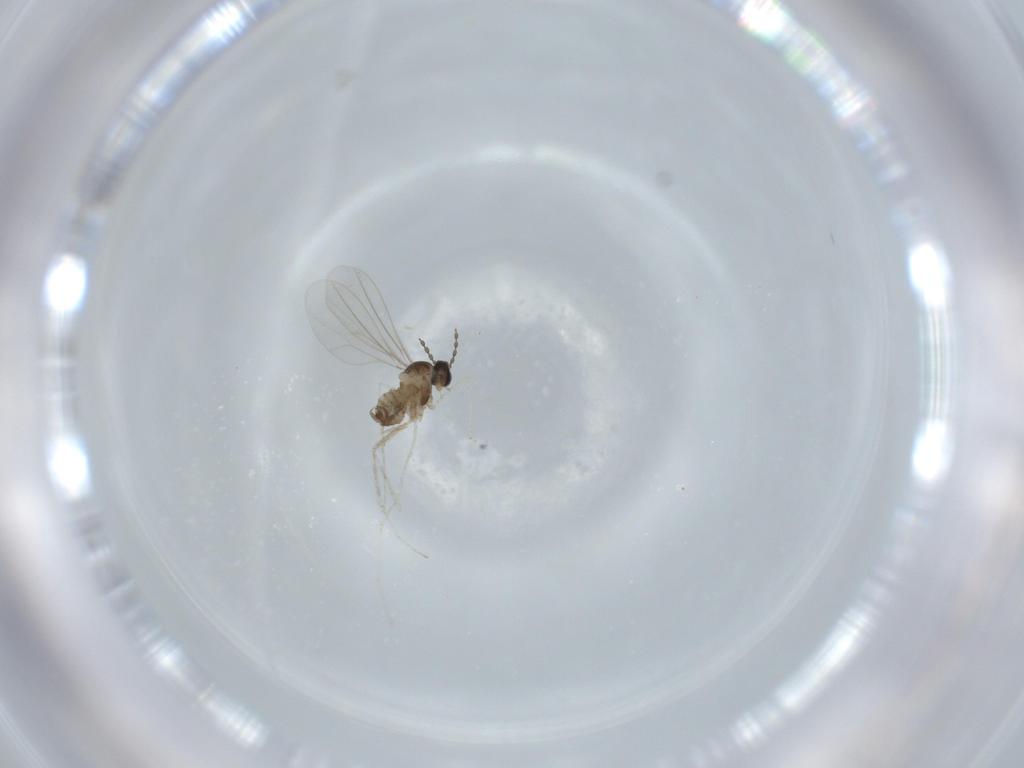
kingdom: Animalia
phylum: Arthropoda
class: Insecta
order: Diptera
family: Cecidomyiidae
